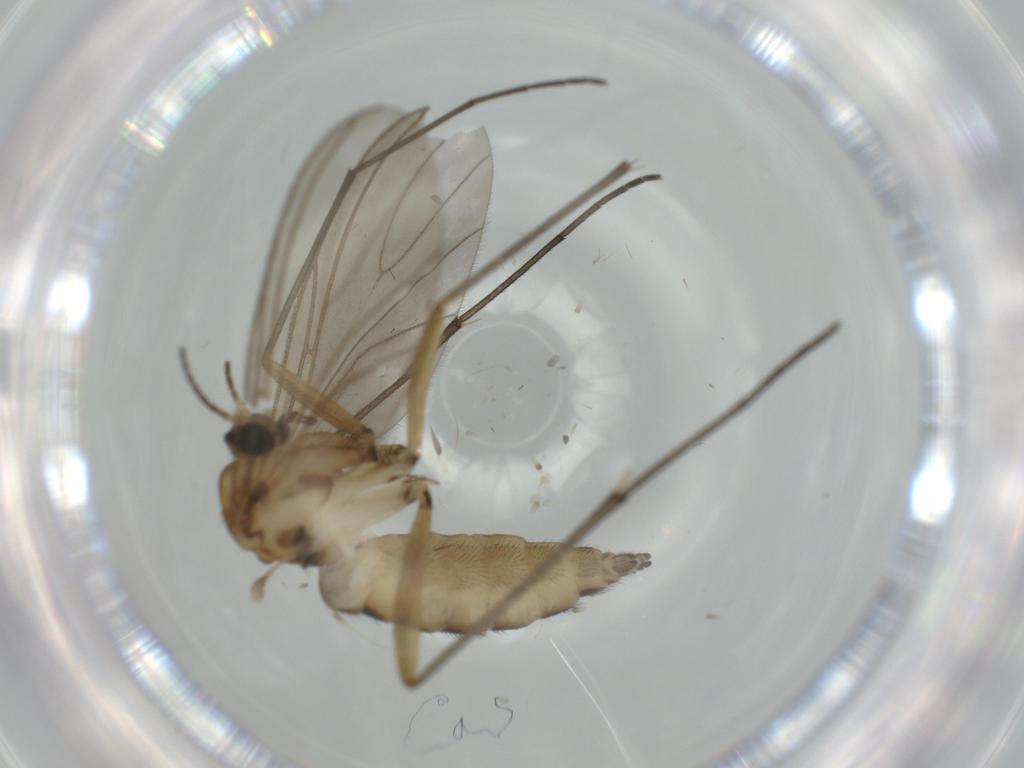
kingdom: Animalia
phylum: Arthropoda
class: Insecta
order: Diptera
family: Sciaridae
